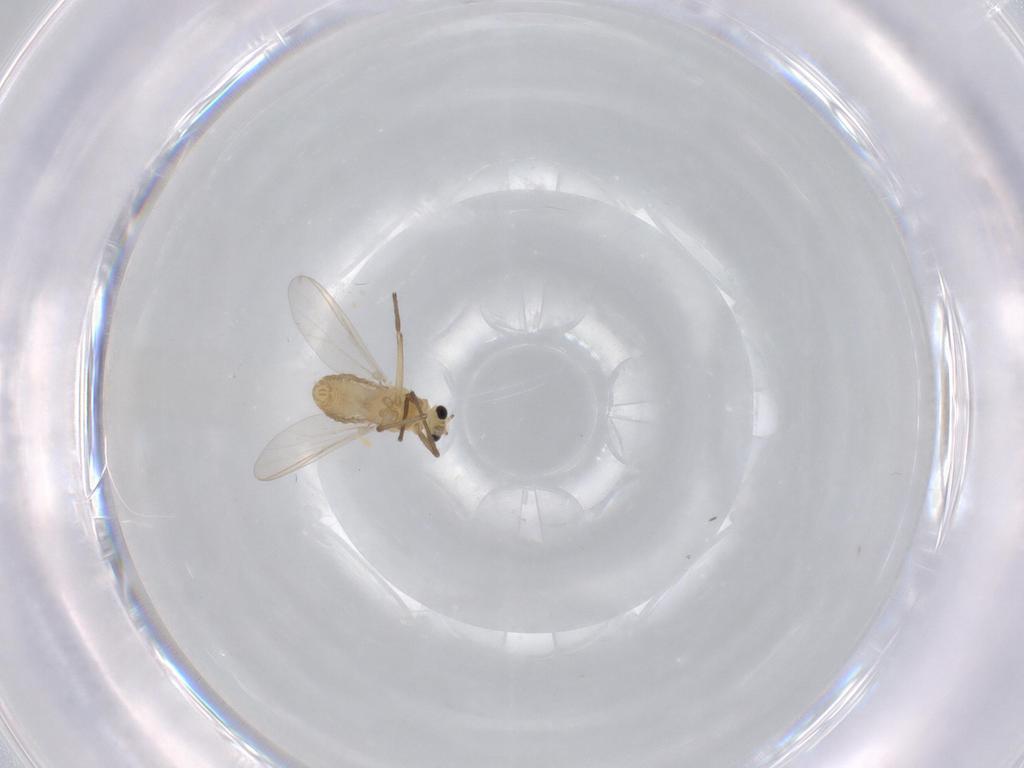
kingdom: Animalia
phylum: Arthropoda
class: Insecta
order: Diptera
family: Chironomidae
